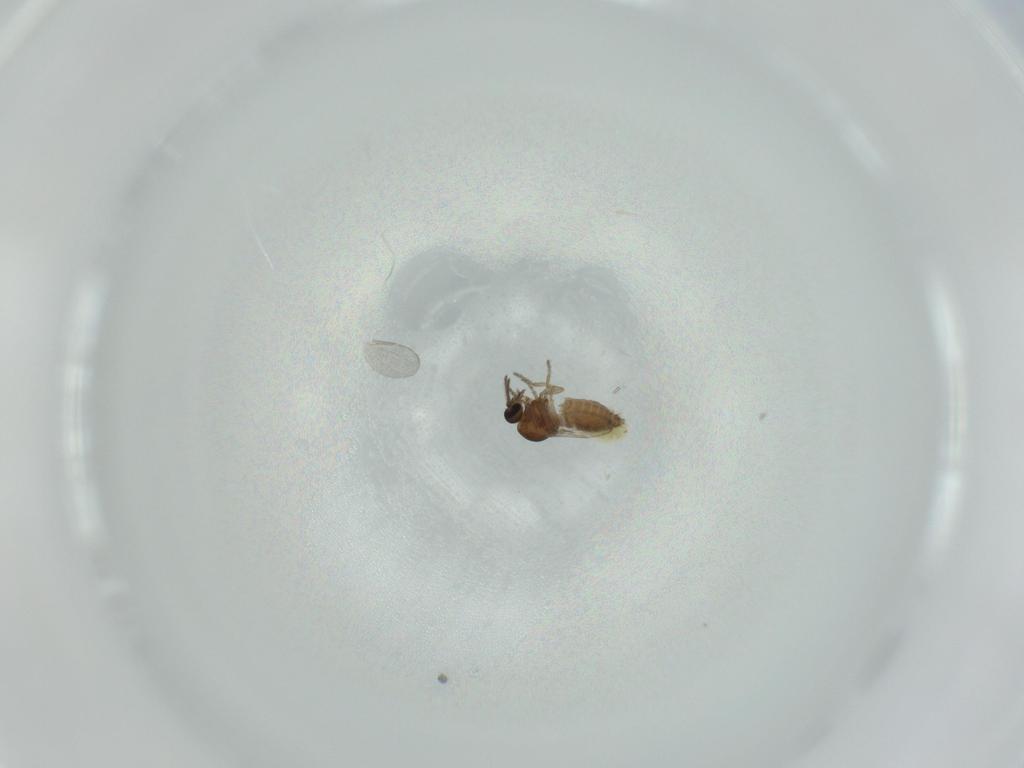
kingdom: Animalia
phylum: Arthropoda
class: Insecta
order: Diptera
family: Ceratopogonidae
